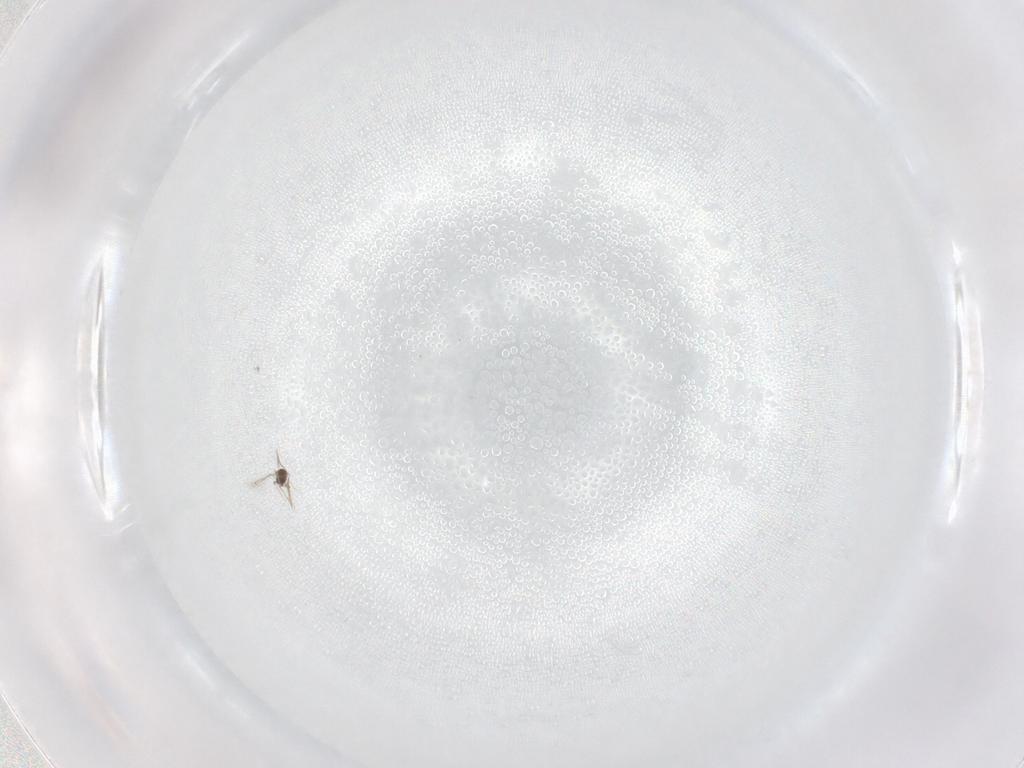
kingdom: Animalia
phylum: Arthropoda
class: Insecta
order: Hymenoptera
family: Scelionidae
